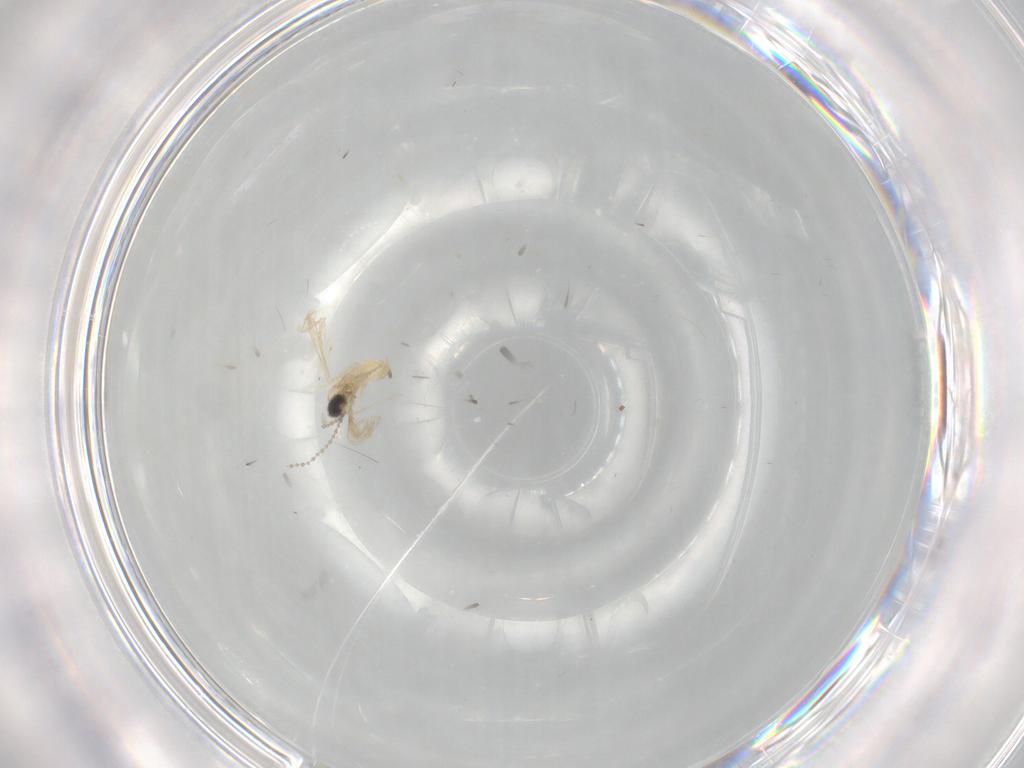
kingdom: Animalia
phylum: Arthropoda
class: Insecta
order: Diptera
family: Cecidomyiidae
